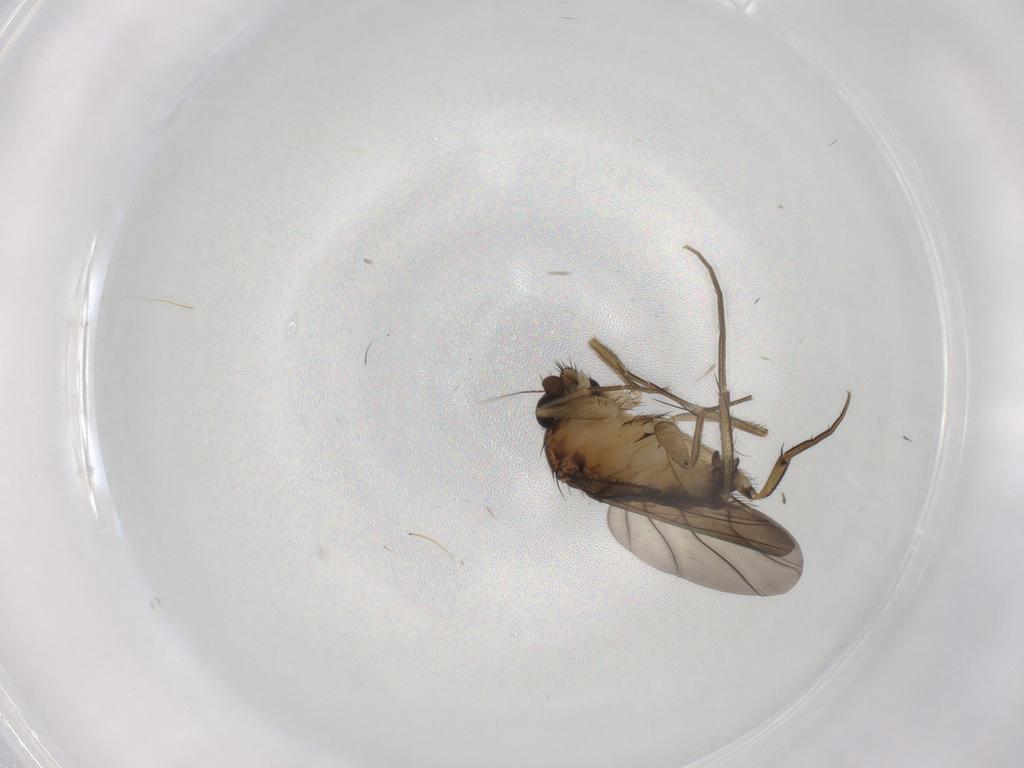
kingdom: Animalia
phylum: Arthropoda
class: Insecta
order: Diptera
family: Phoridae
